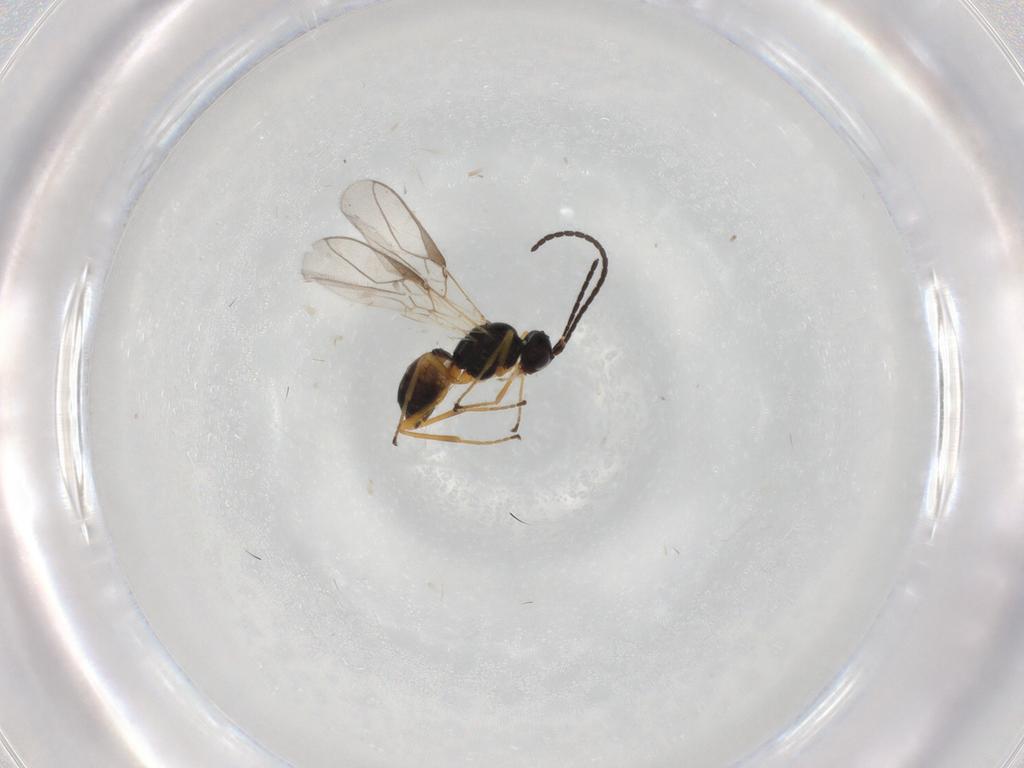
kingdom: Animalia
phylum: Arthropoda
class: Insecta
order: Hymenoptera
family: Braconidae
